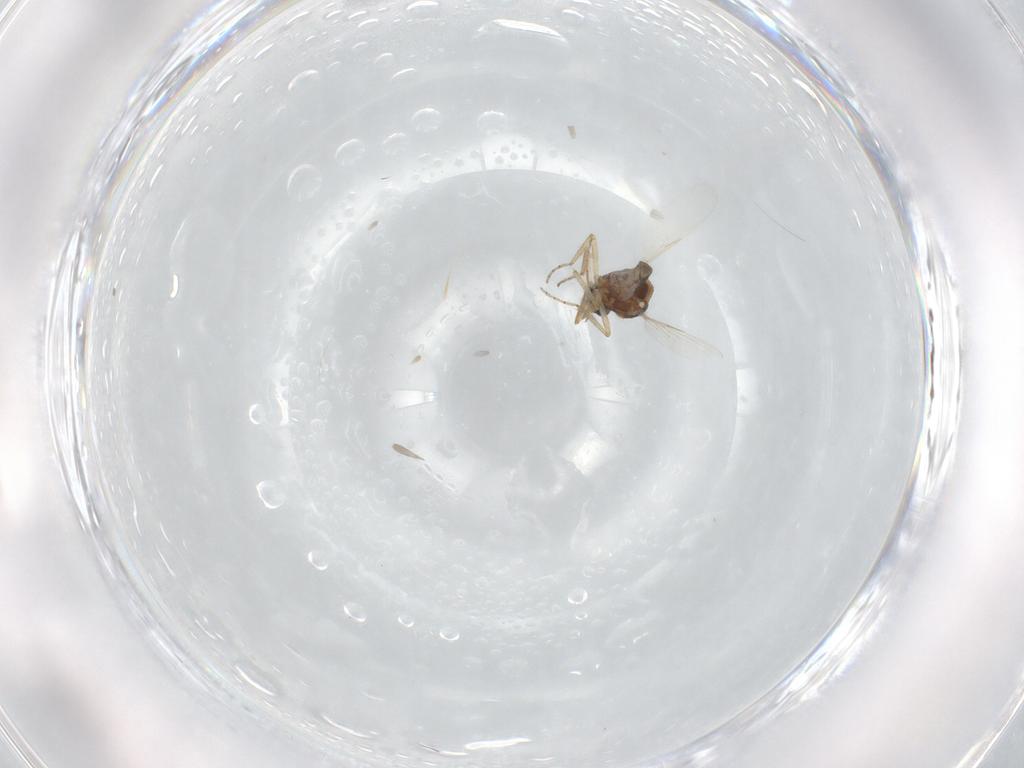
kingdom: Animalia
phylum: Arthropoda
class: Insecta
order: Diptera
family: Ceratopogonidae
